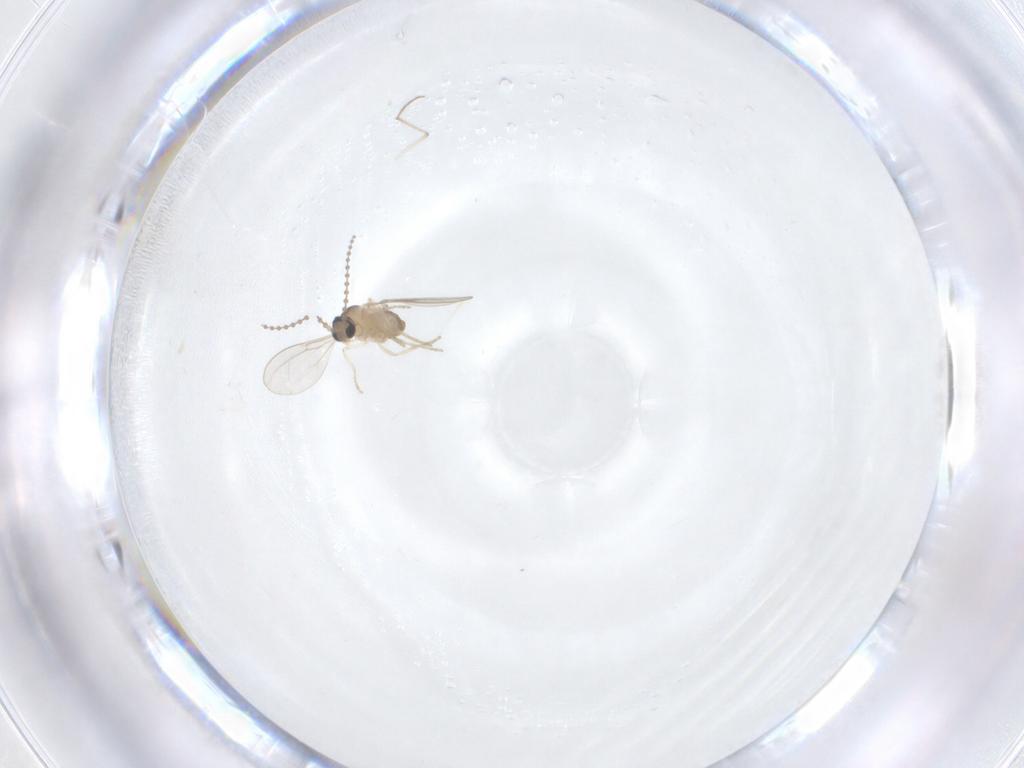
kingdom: Animalia
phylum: Arthropoda
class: Insecta
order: Diptera
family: Chironomidae
